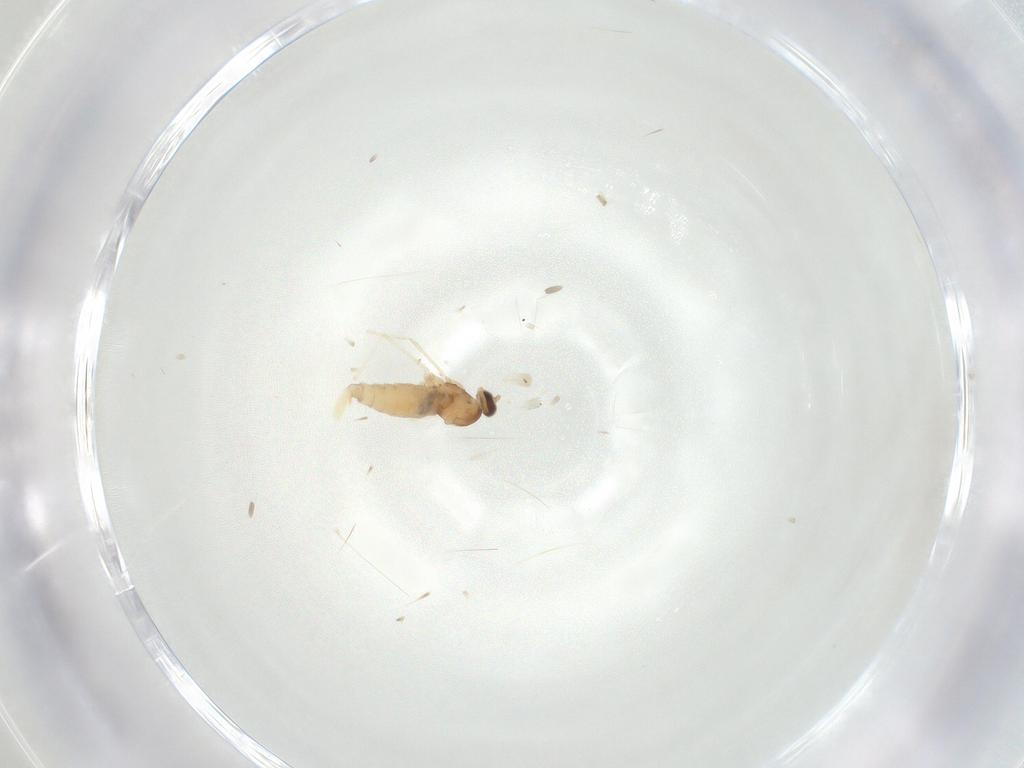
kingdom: Animalia
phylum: Arthropoda
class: Insecta
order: Diptera
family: Cecidomyiidae
